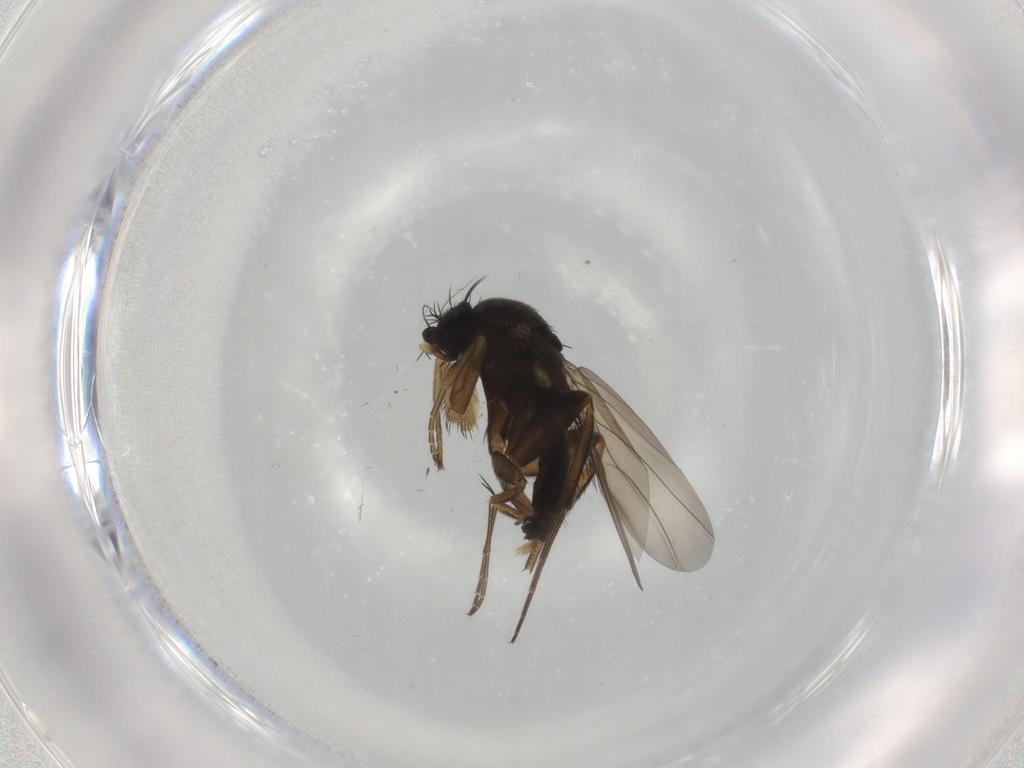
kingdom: Animalia
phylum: Arthropoda
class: Insecta
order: Diptera
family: Phoridae
